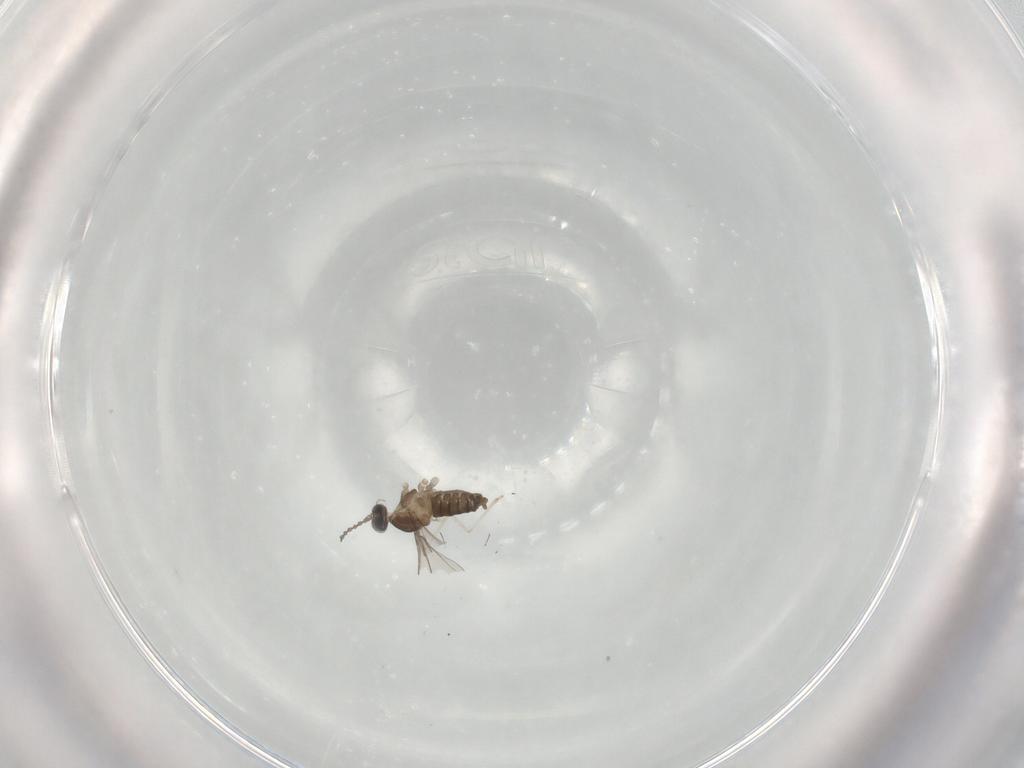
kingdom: Animalia
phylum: Arthropoda
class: Insecta
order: Diptera
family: Cecidomyiidae
